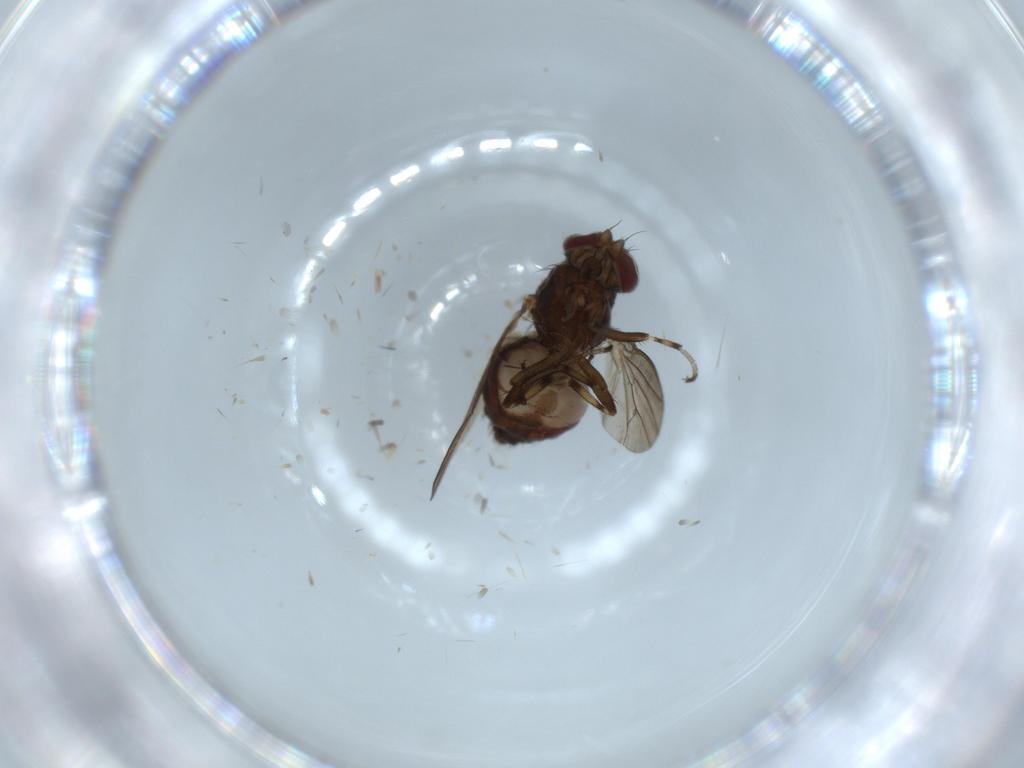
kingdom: Animalia
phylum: Arthropoda
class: Insecta
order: Diptera
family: Heleomyzidae
